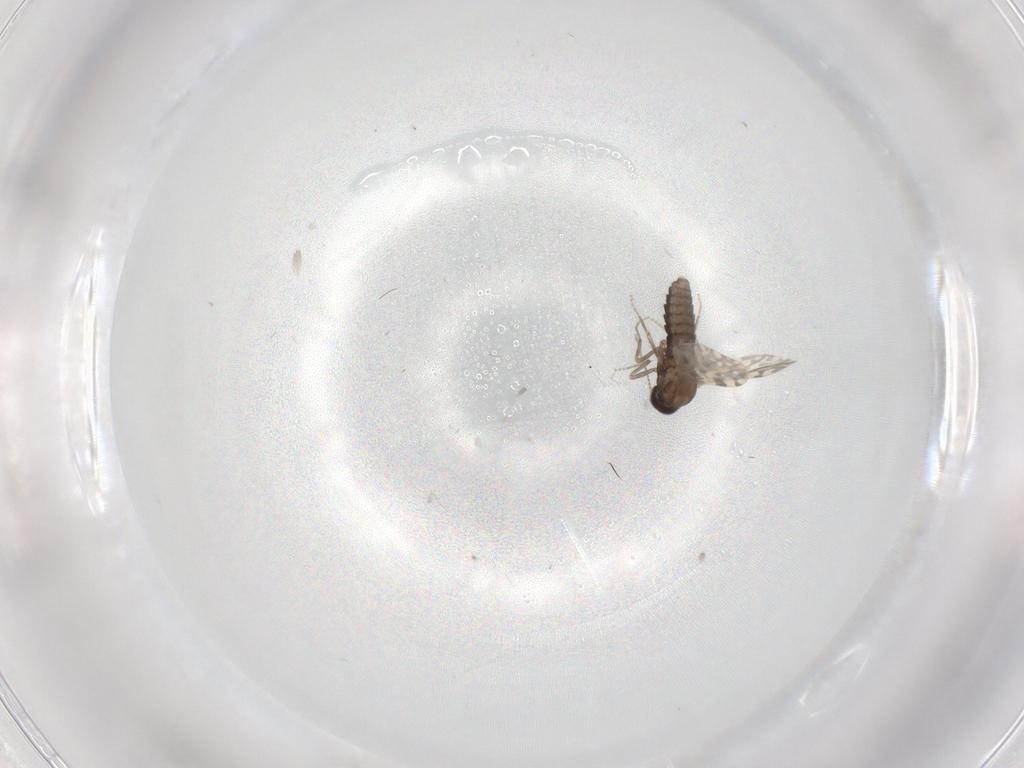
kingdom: Animalia
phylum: Arthropoda
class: Insecta
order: Diptera
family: Ceratopogonidae
